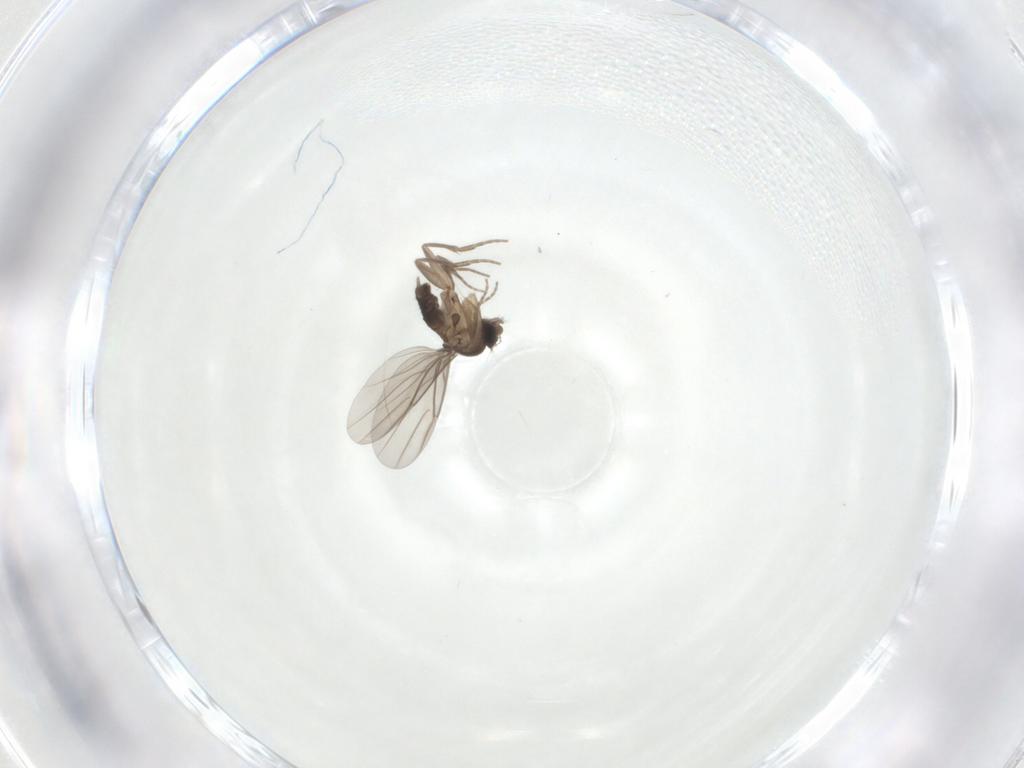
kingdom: Animalia
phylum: Arthropoda
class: Insecta
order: Diptera
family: Phoridae
